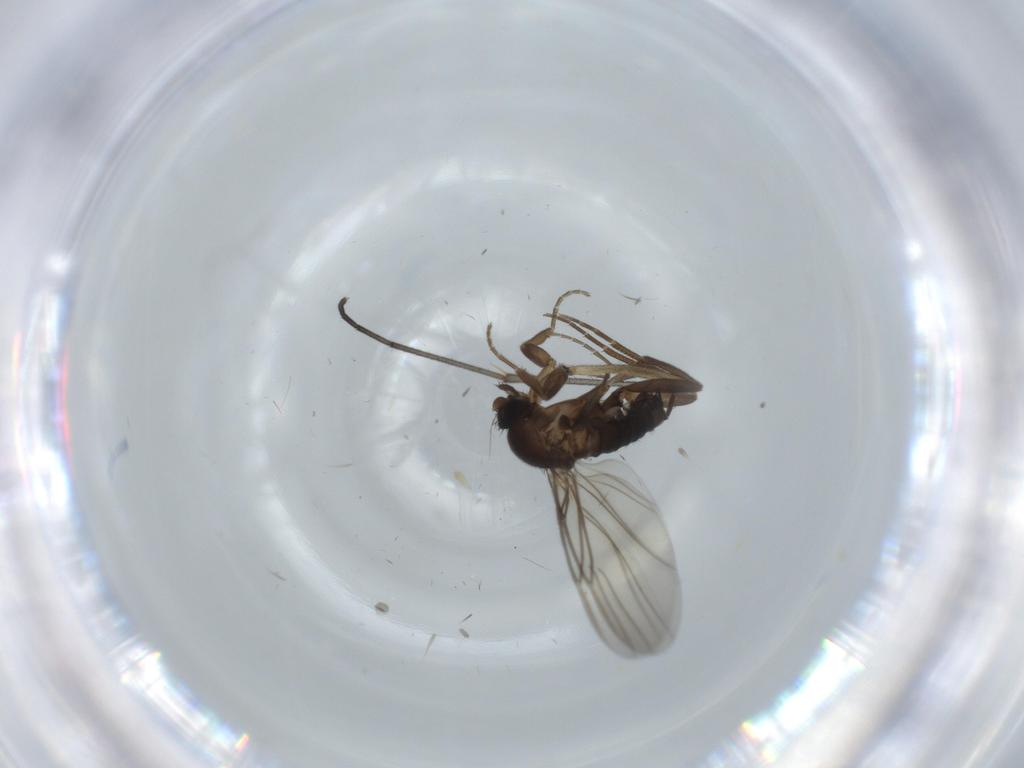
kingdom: Animalia
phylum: Arthropoda
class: Insecta
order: Diptera
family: Sciaridae
